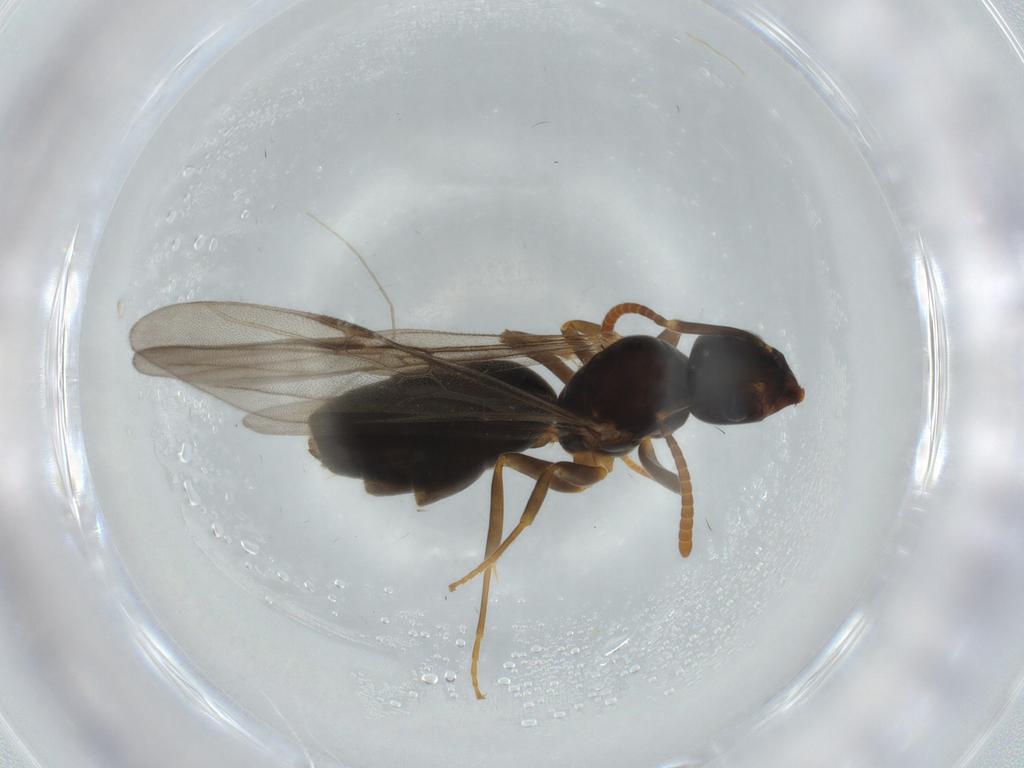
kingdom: Animalia
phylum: Arthropoda
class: Insecta
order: Hymenoptera
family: Formicidae
